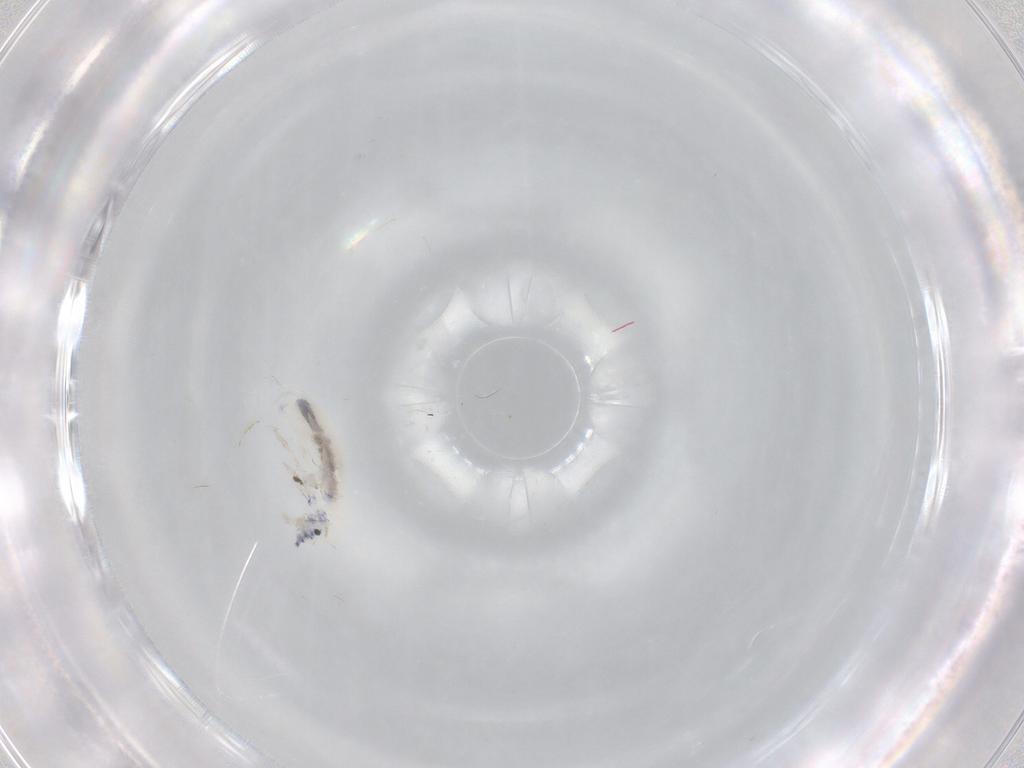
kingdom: Animalia
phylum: Arthropoda
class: Collembola
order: Entomobryomorpha
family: Entomobryidae
